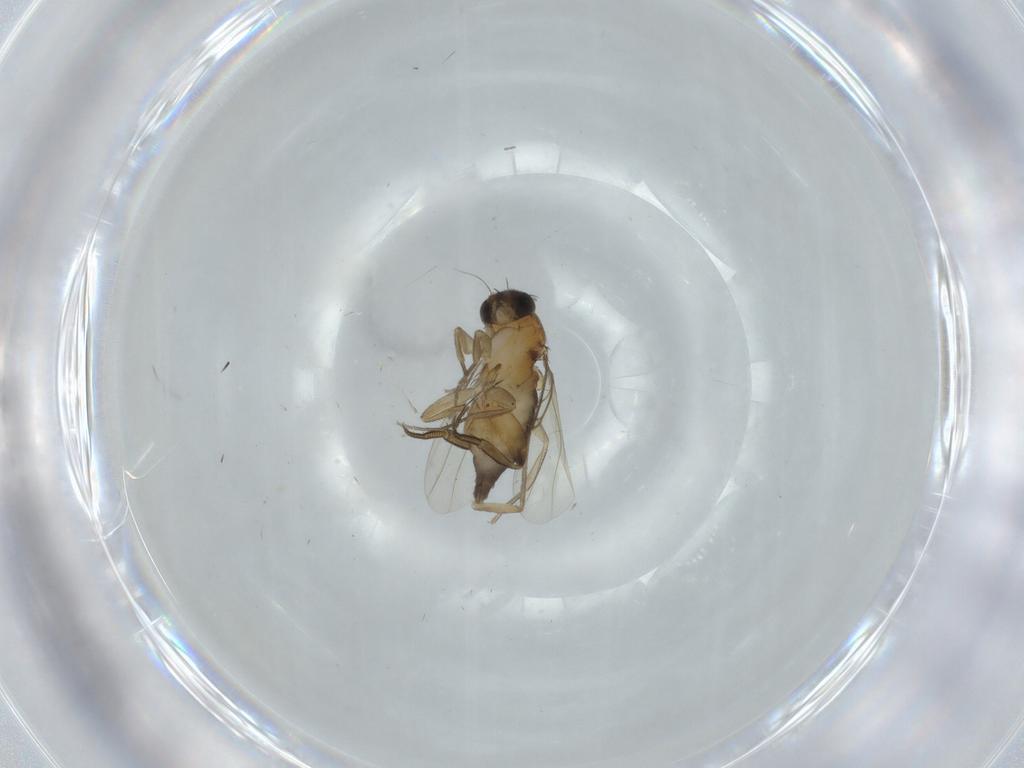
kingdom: Animalia
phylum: Arthropoda
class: Insecta
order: Diptera
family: Phoridae
